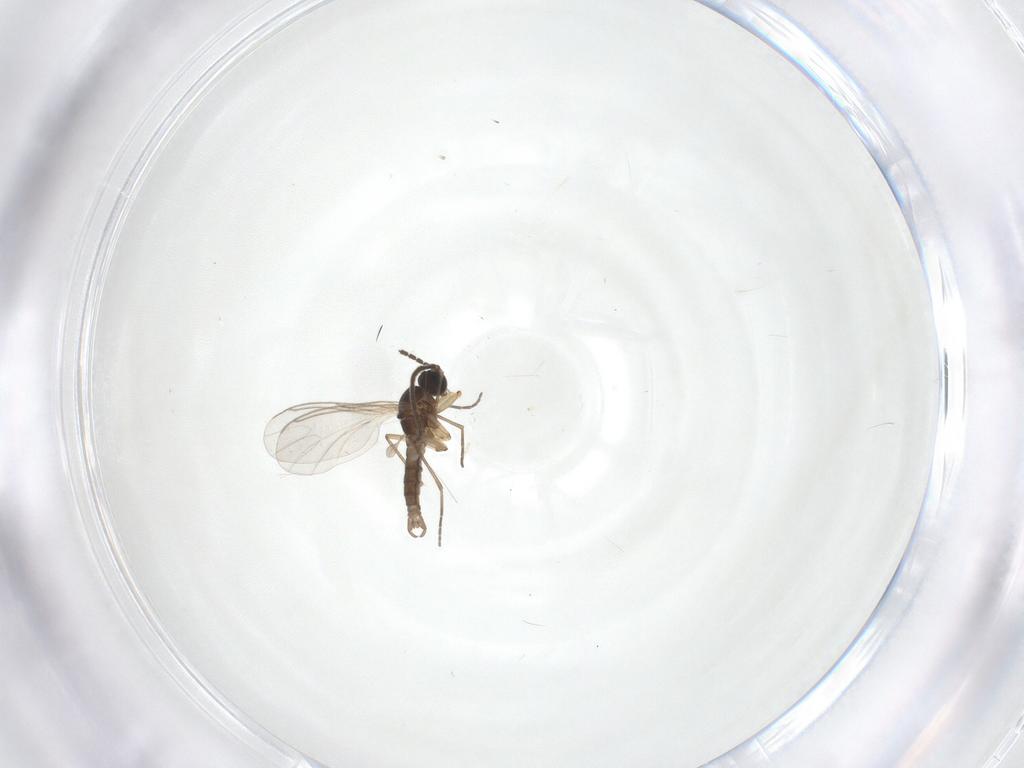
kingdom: Animalia
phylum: Arthropoda
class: Insecta
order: Diptera
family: Sciaridae
